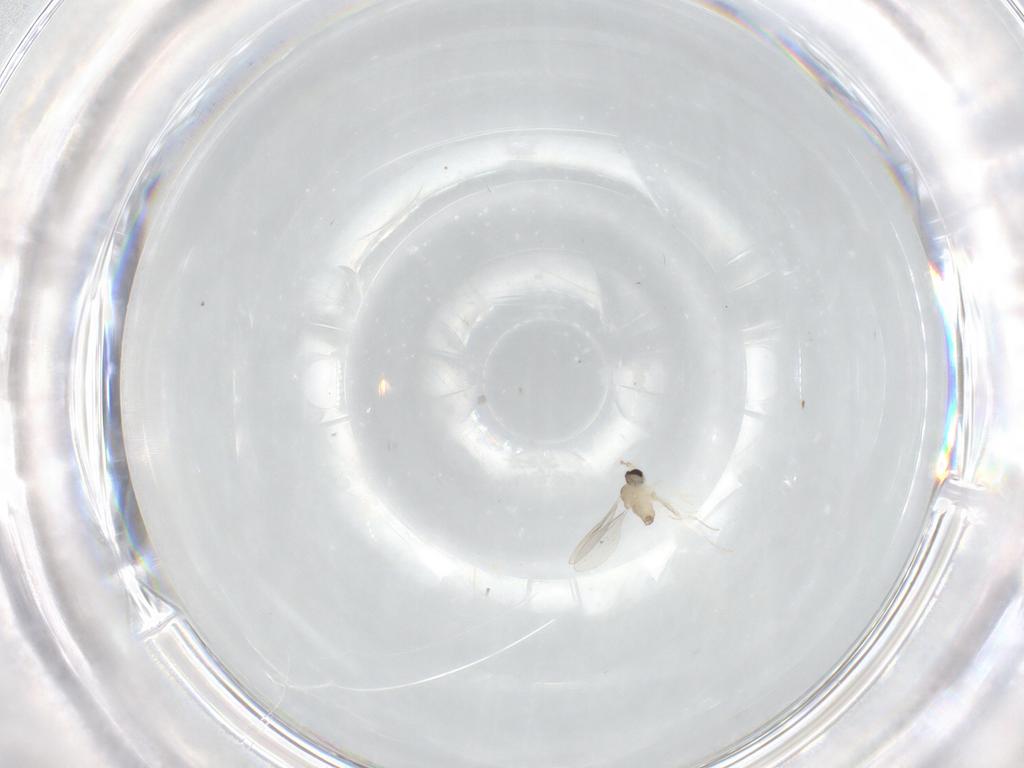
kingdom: Animalia
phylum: Arthropoda
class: Insecta
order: Diptera
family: Cecidomyiidae
